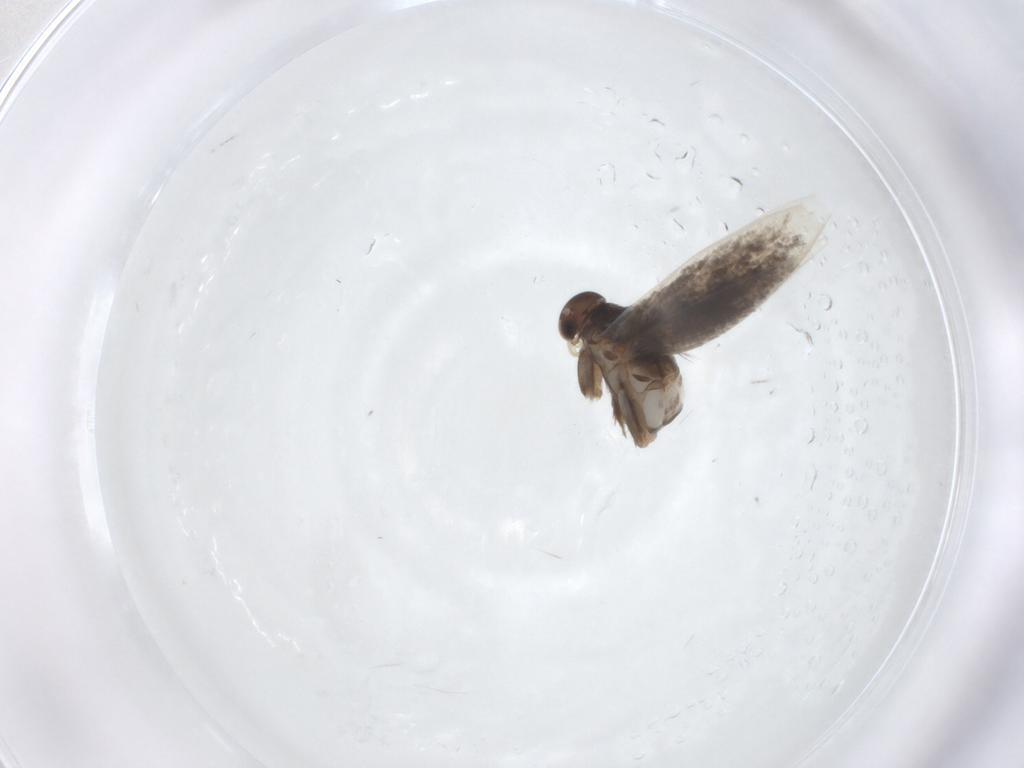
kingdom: Animalia
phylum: Arthropoda
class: Insecta
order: Lepidoptera
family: Elachistidae
